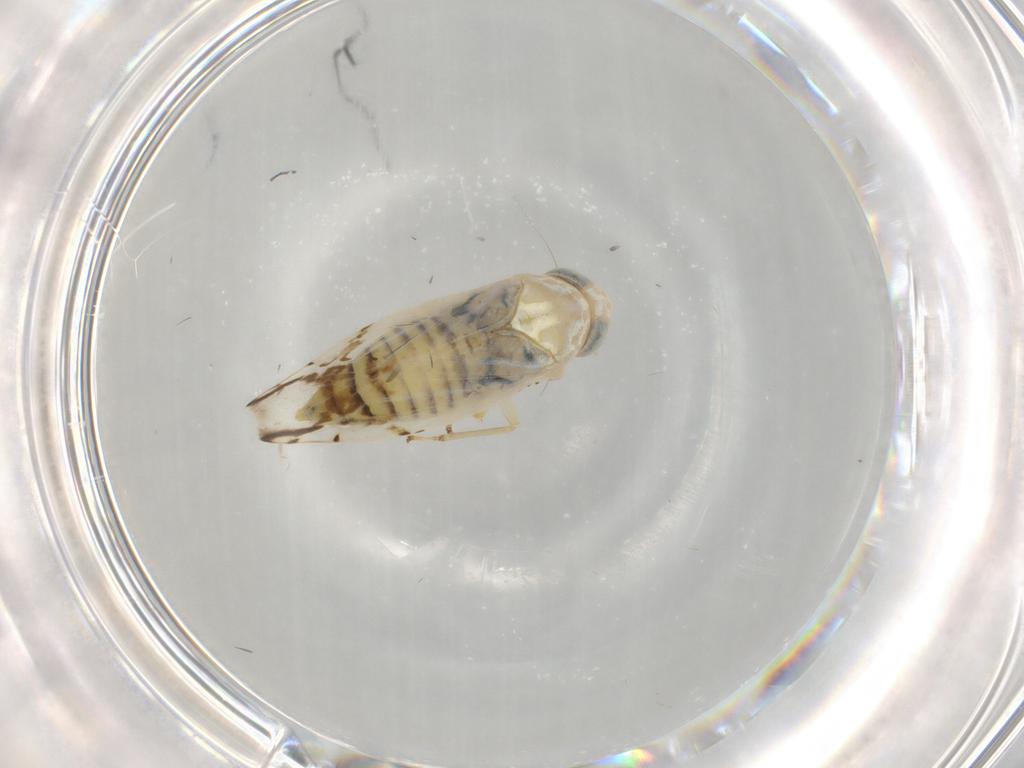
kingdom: Animalia
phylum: Arthropoda
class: Insecta
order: Hemiptera
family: Cicadellidae
